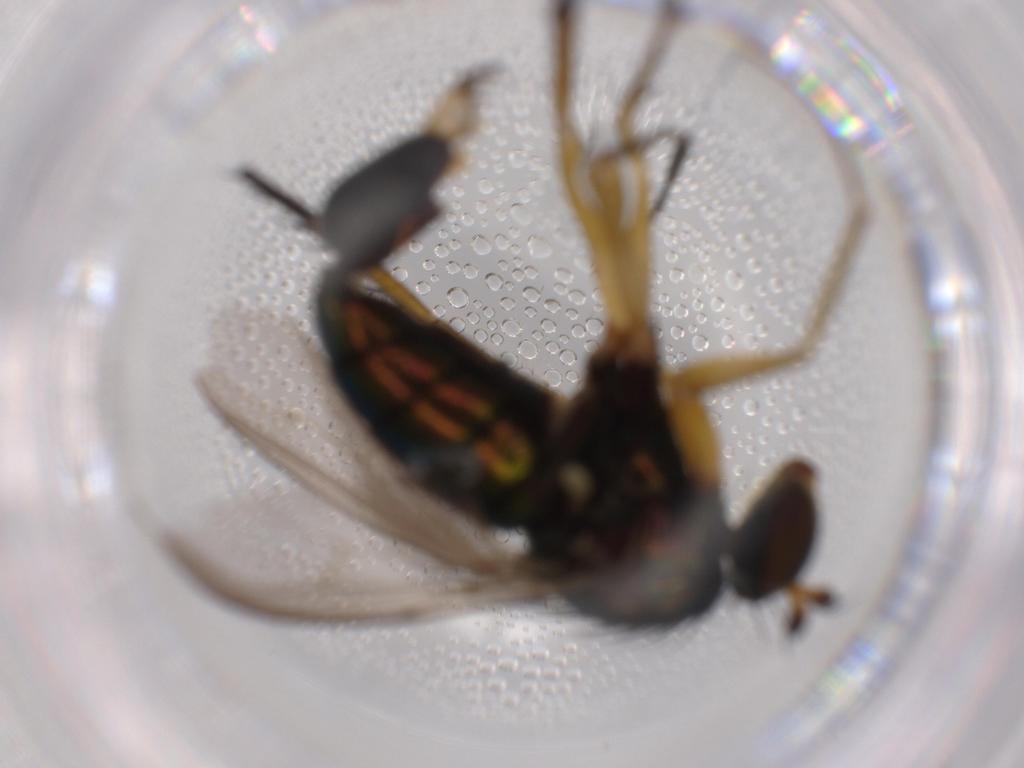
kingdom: Animalia
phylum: Arthropoda
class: Insecta
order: Diptera
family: Dolichopodidae
